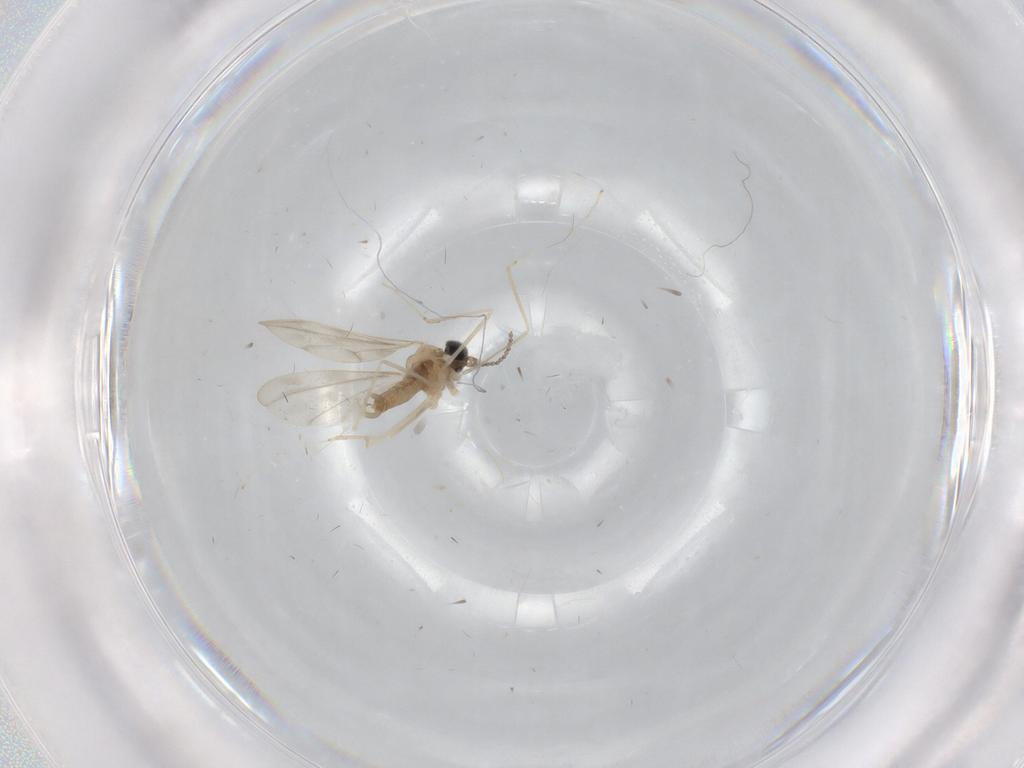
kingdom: Animalia
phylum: Arthropoda
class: Insecta
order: Diptera
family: Cecidomyiidae
